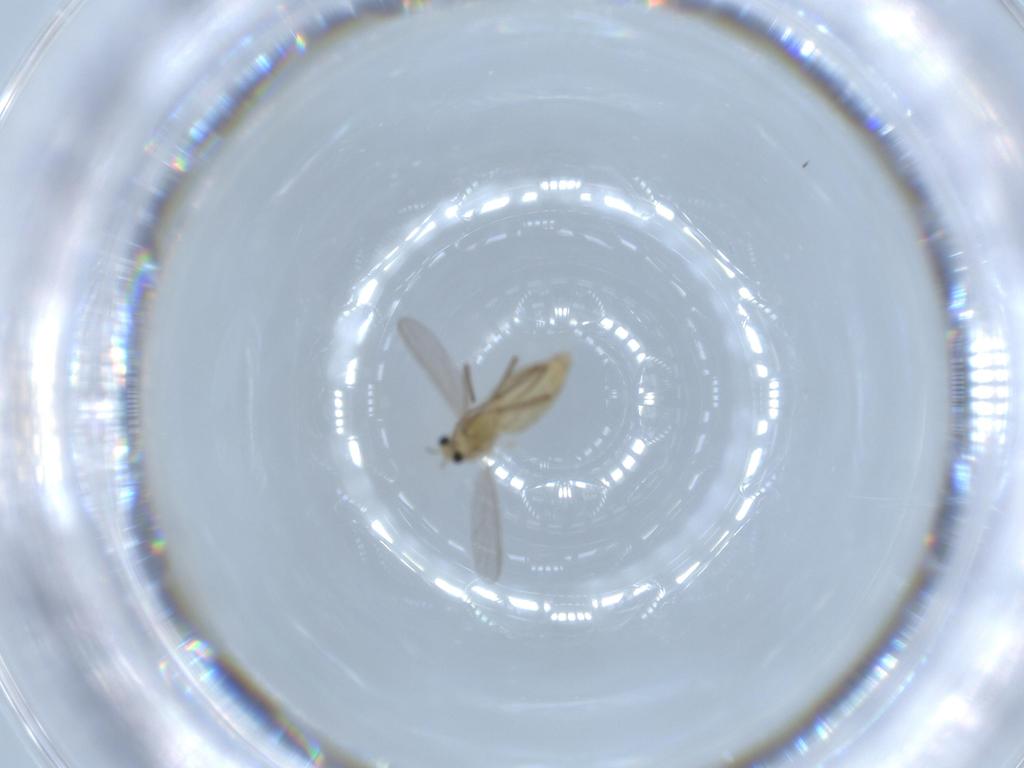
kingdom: Animalia
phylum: Arthropoda
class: Insecta
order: Diptera
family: Chironomidae
